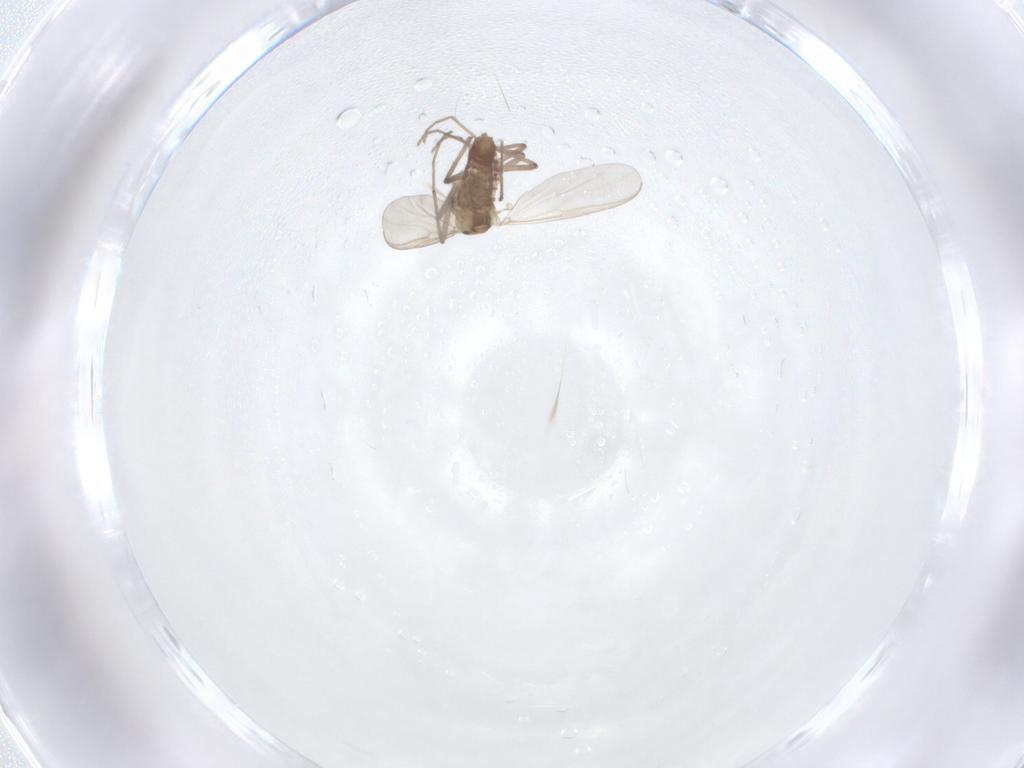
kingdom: Animalia
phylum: Arthropoda
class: Insecta
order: Diptera
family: Chironomidae
